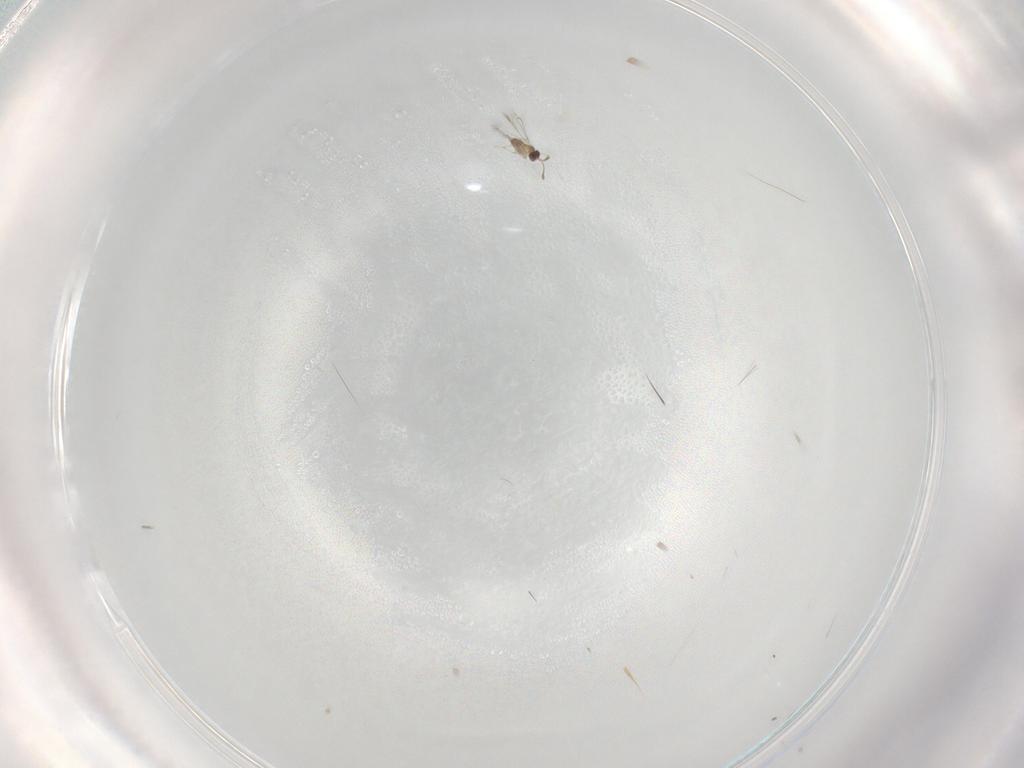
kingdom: Animalia
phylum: Arthropoda
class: Insecta
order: Hymenoptera
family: Mymaridae
